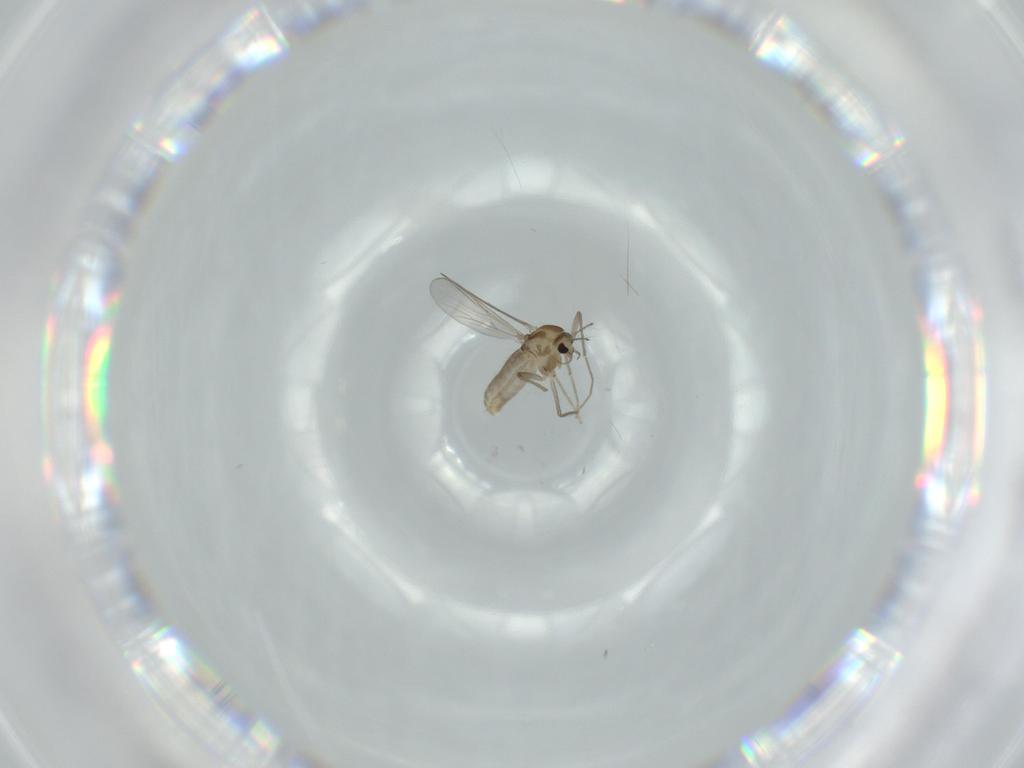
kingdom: Animalia
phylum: Arthropoda
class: Insecta
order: Diptera
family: Chironomidae
